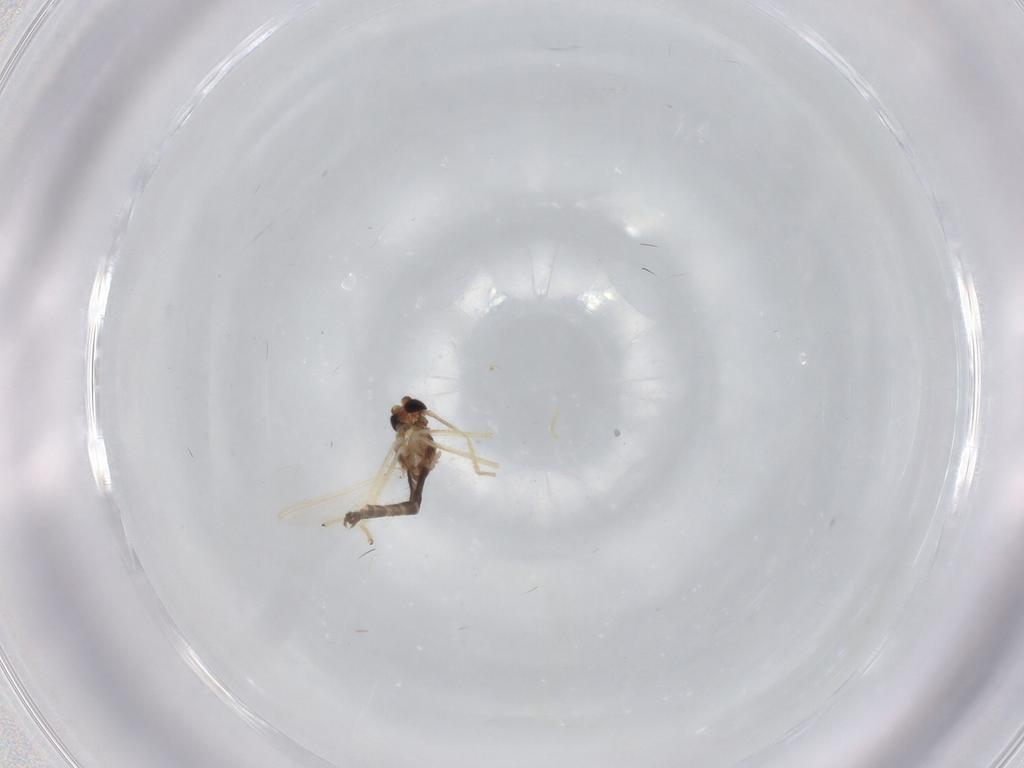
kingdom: Animalia
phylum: Arthropoda
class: Insecta
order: Diptera
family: Chironomidae
